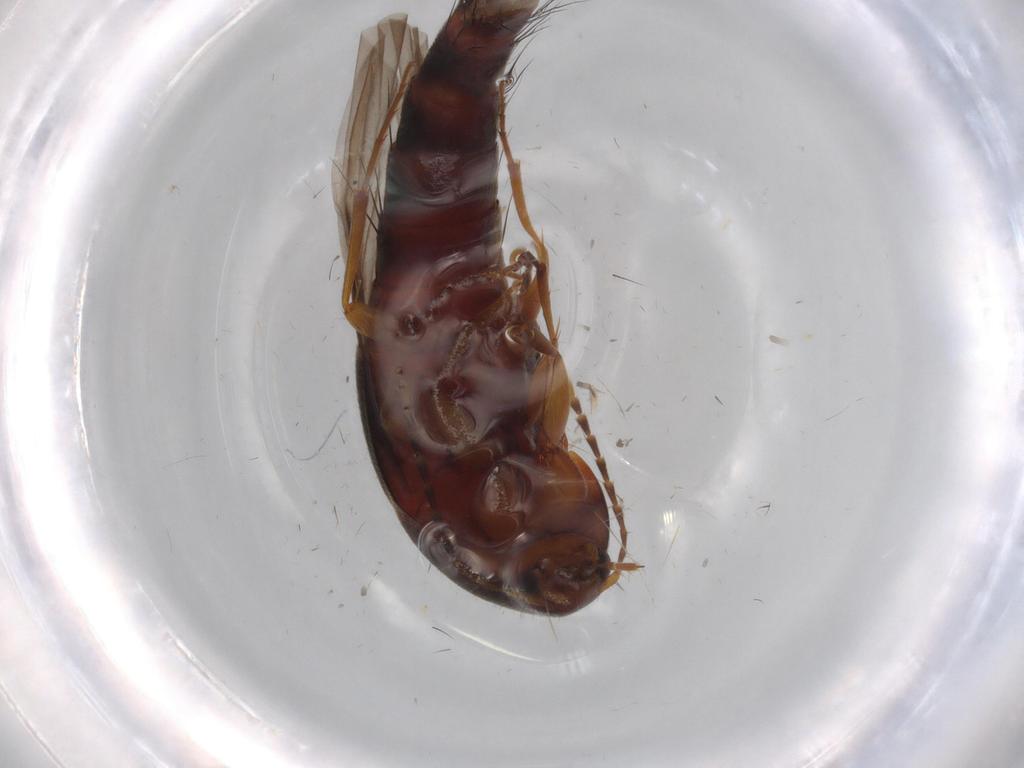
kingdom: Animalia
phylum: Arthropoda
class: Insecta
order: Coleoptera
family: Staphylinidae
